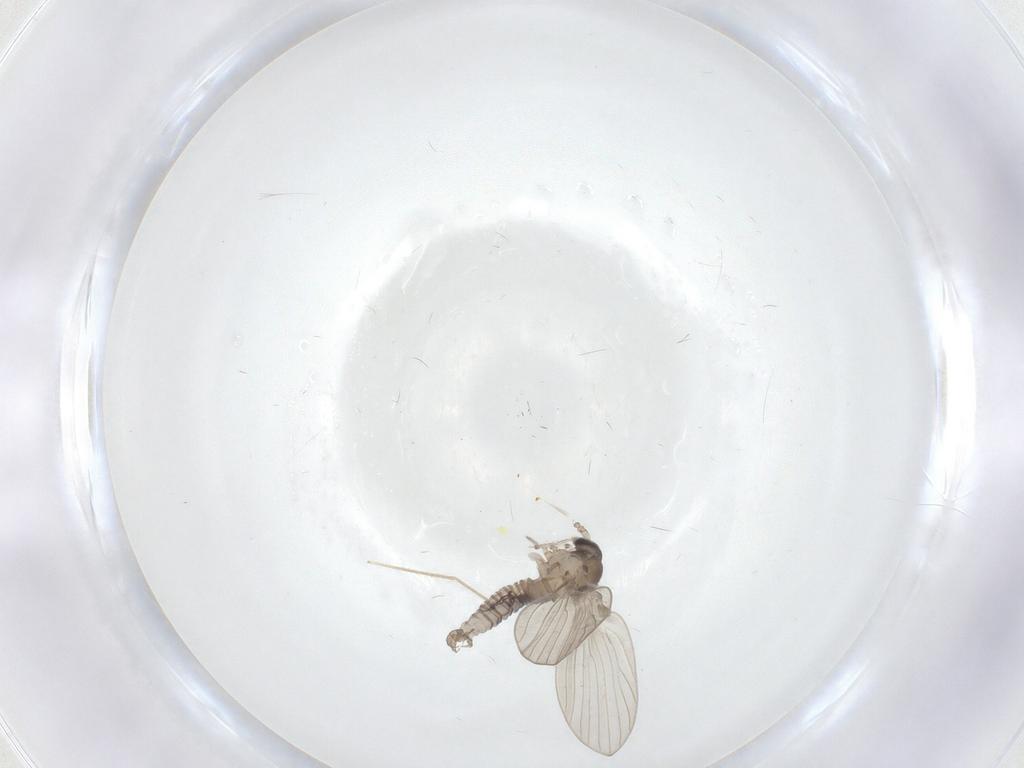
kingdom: Animalia
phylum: Arthropoda
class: Insecta
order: Diptera
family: Psychodidae
